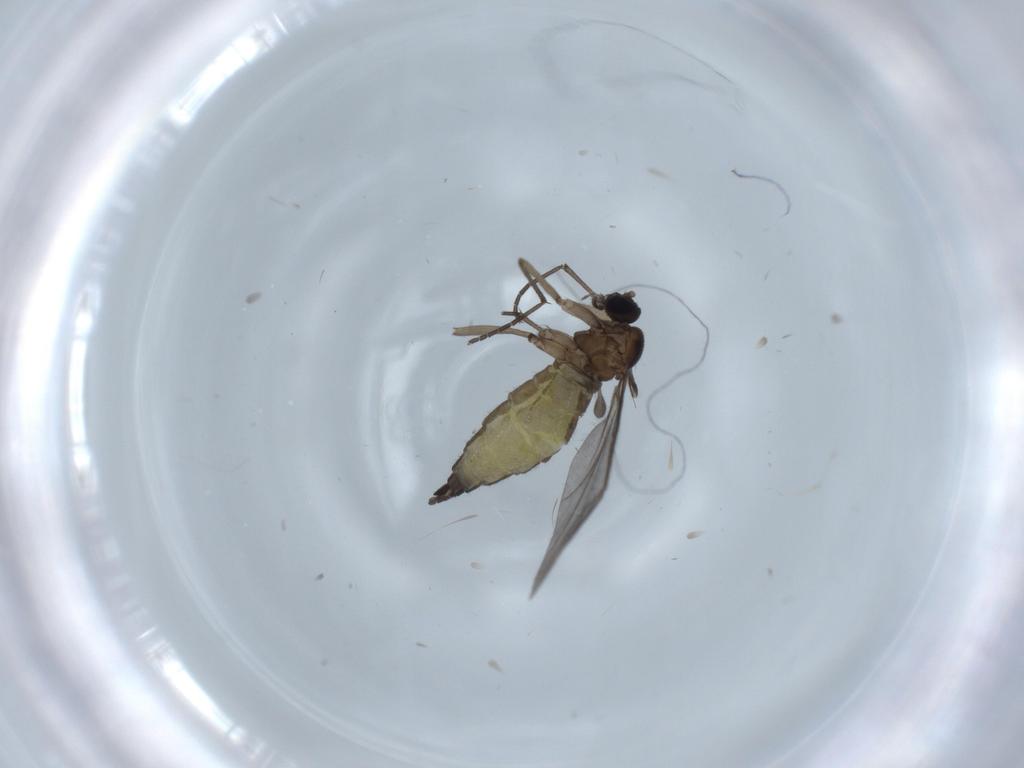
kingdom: Animalia
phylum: Arthropoda
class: Insecta
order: Diptera
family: Sciaridae
